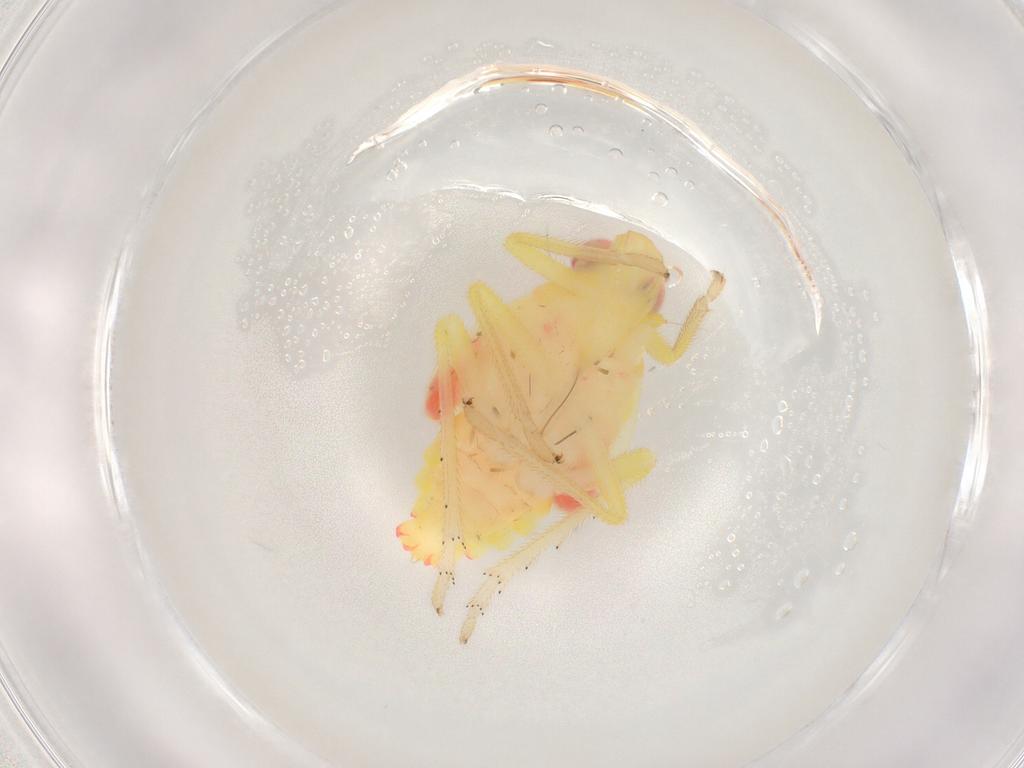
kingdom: Animalia
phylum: Arthropoda
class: Insecta
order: Hemiptera
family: Tropiduchidae
